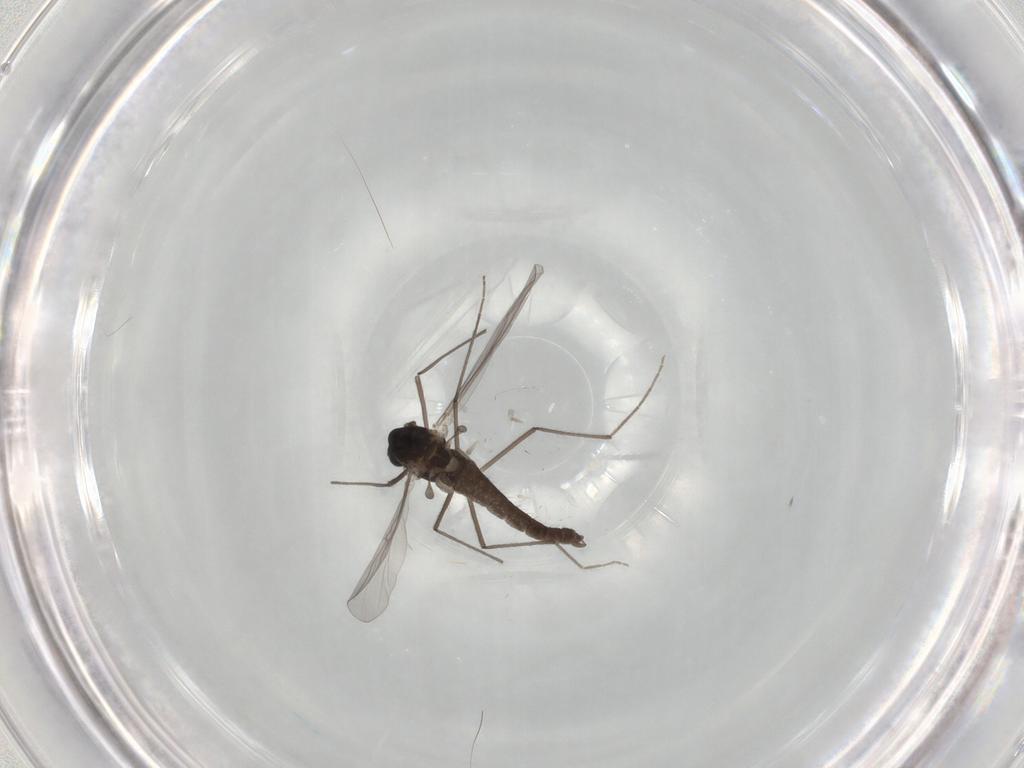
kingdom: Animalia
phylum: Arthropoda
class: Insecta
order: Diptera
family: Chironomidae
